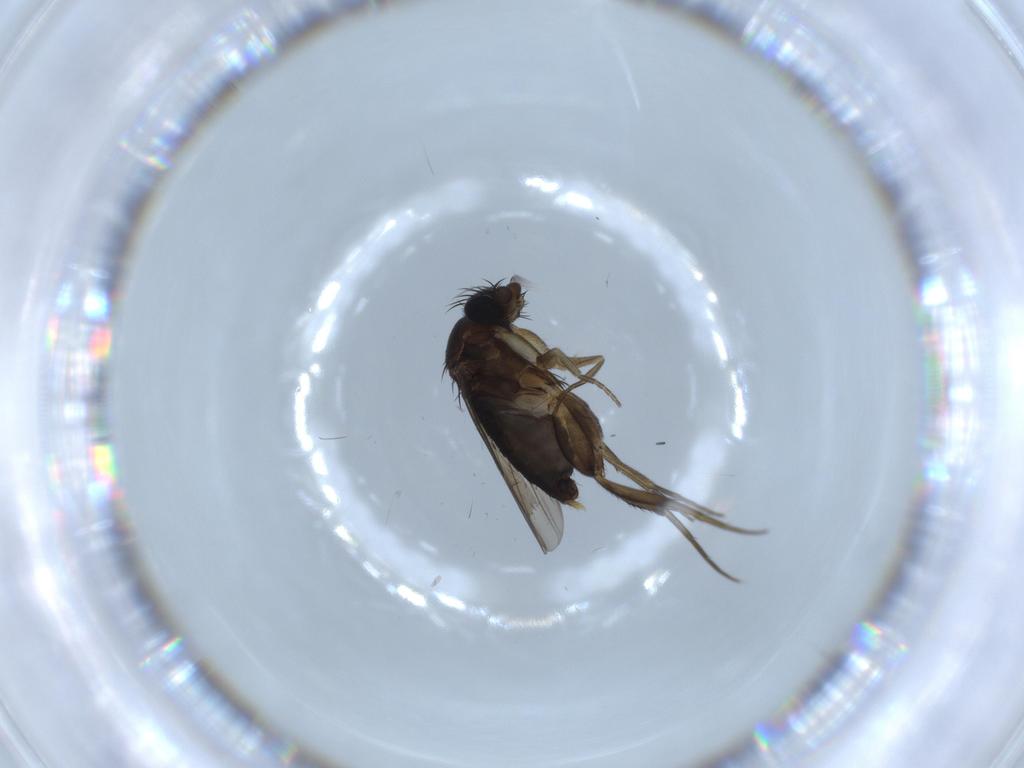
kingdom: Animalia
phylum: Arthropoda
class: Insecta
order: Diptera
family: Phoridae
